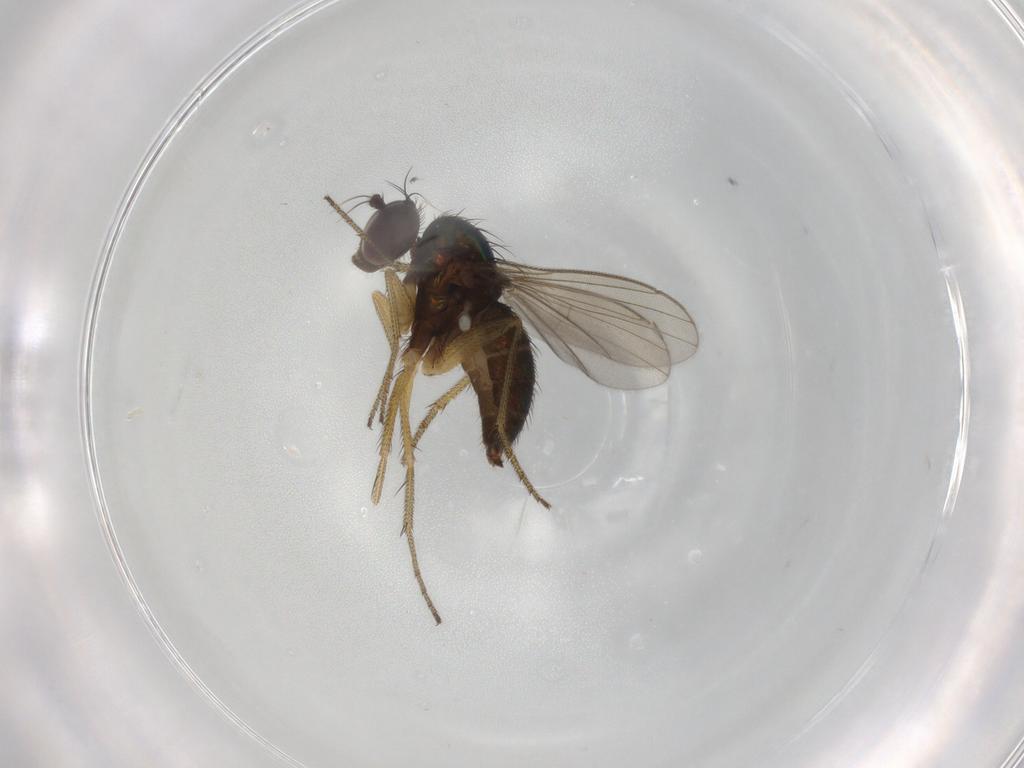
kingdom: Animalia
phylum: Arthropoda
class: Insecta
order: Diptera
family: Dolichopodidae
